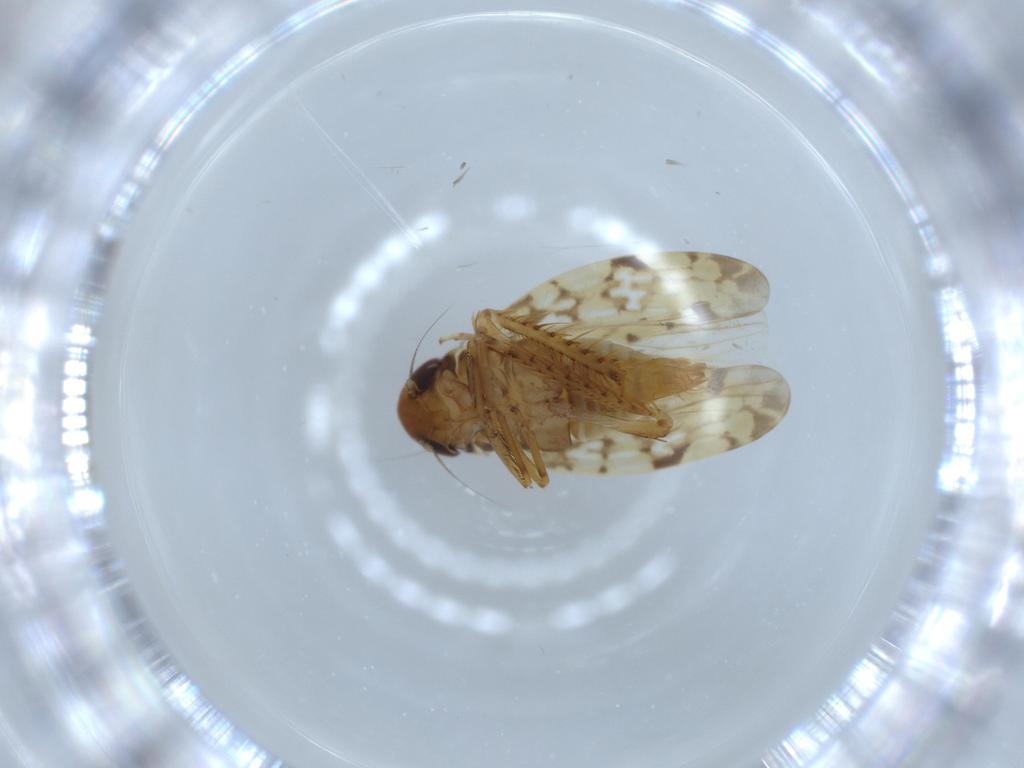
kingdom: Animalia
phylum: Arthropoda
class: Insecta
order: Hemiptera
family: Cicadellidae
